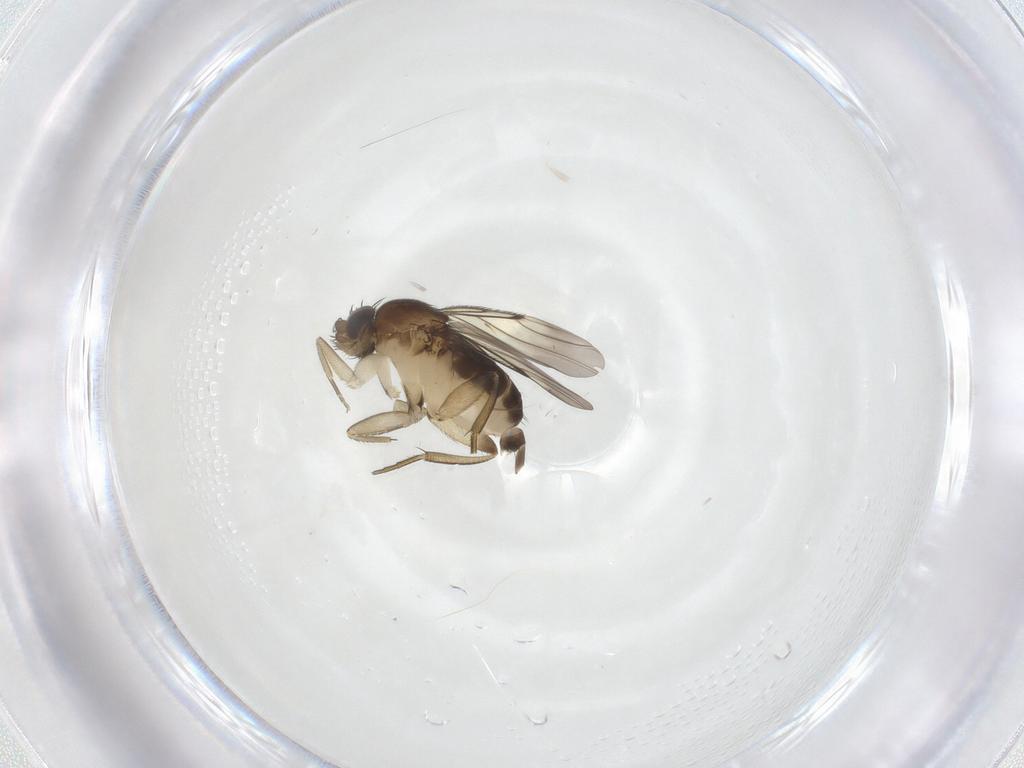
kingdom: Animalia
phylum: Arthropoda
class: Insecta
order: Diptera
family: Phoridae
